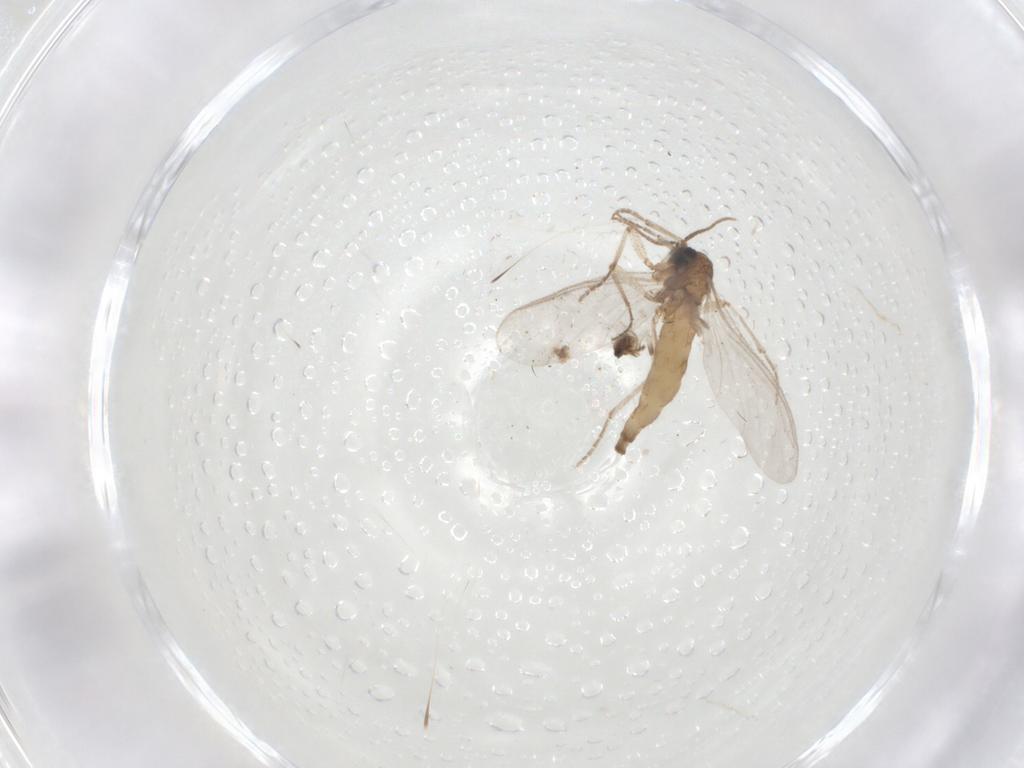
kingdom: Animalia
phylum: Arthropoda
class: Insecta
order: Diptera
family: Sciaridae
